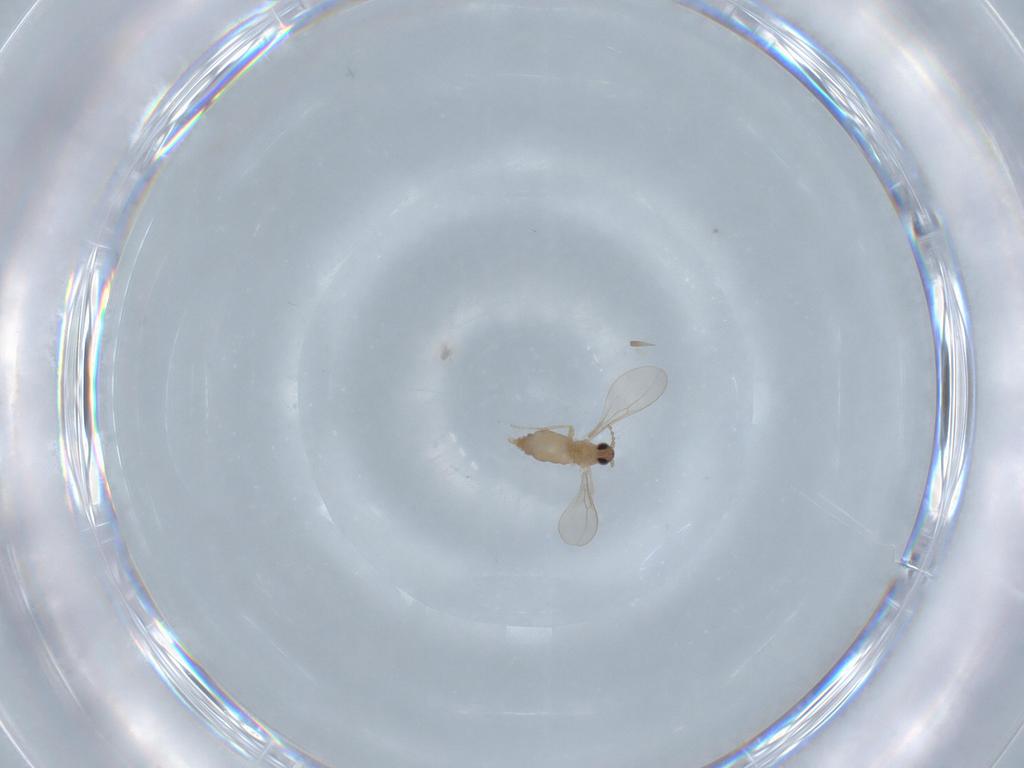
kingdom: Animalia
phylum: Arthropoda
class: Insecta
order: Diptera
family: Cecidomyiidae
